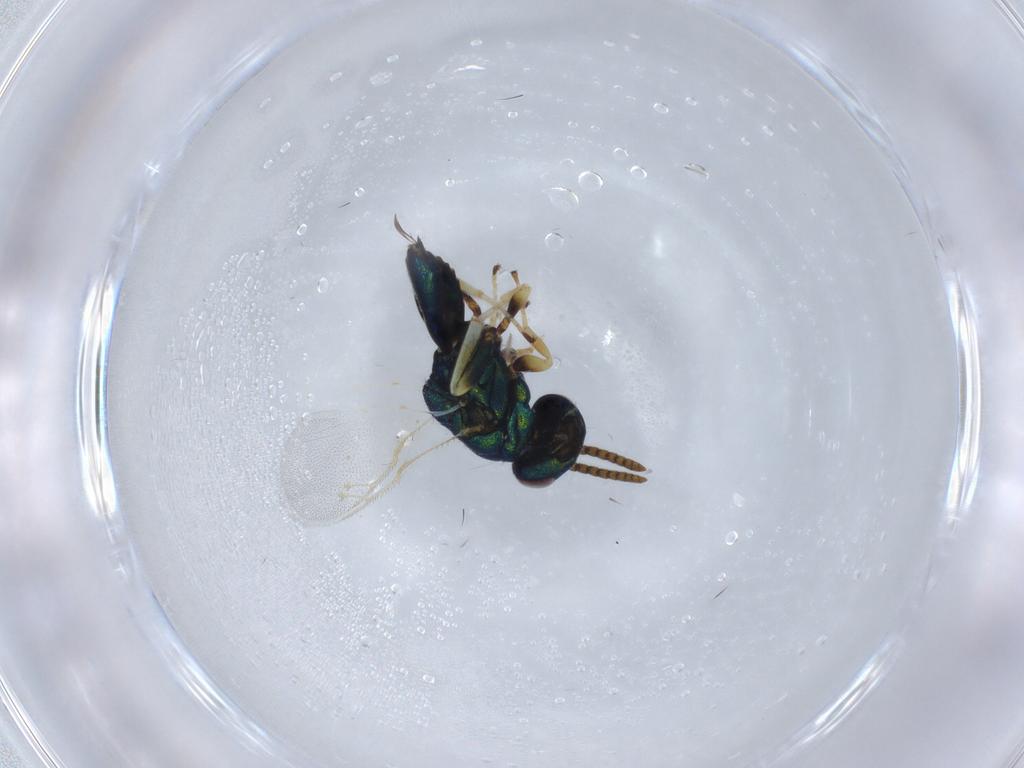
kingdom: Animalia
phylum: Arthropoda
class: Insecta
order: Hymenoptera
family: Pteromalidae
